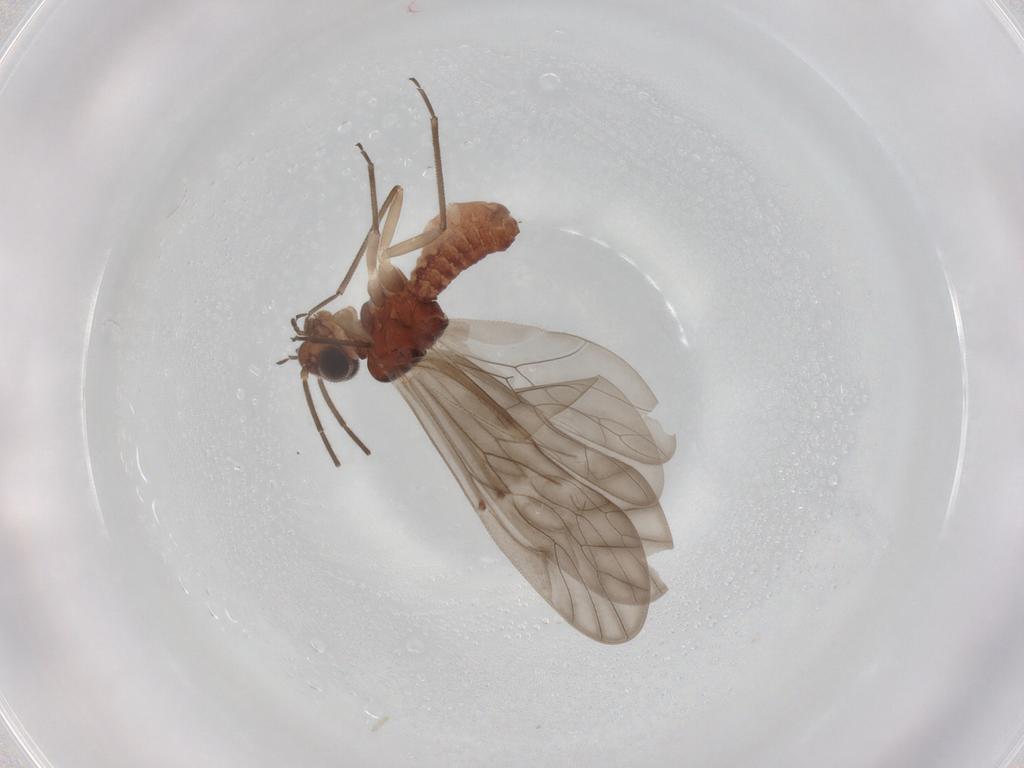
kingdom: Animalia
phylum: Arthropoda
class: Insecta
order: Psocodea
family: Caeciliusidae
